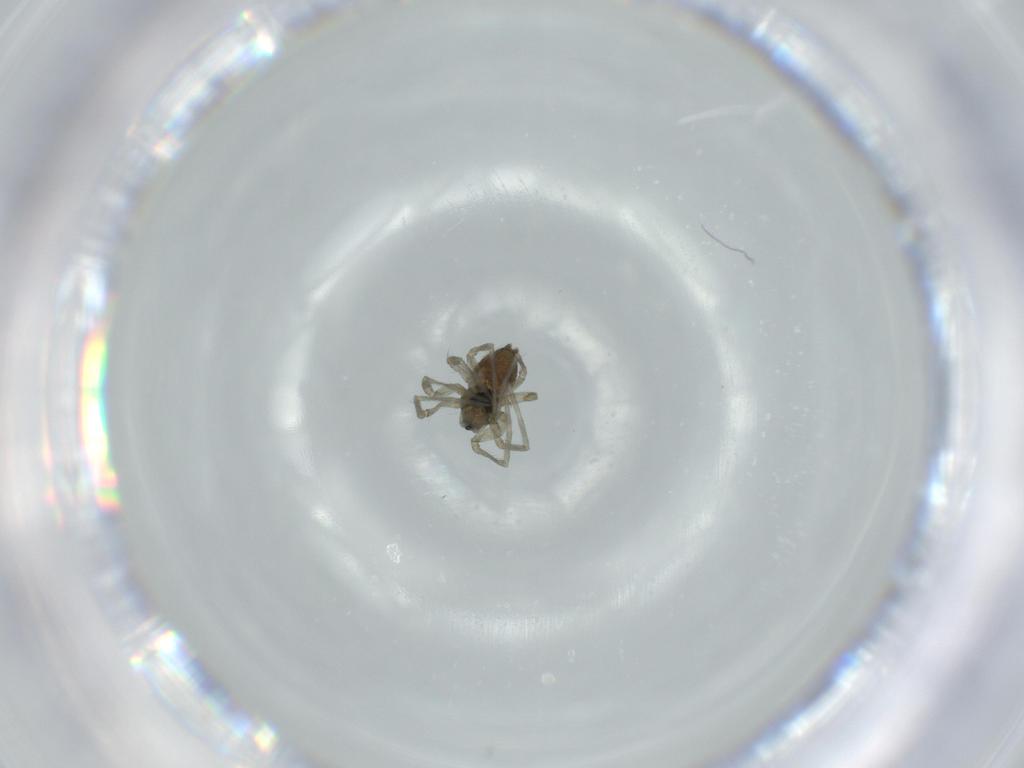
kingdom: Animalia
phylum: Arthropoda
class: Arachnida
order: Araneae
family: Linyphiidae
